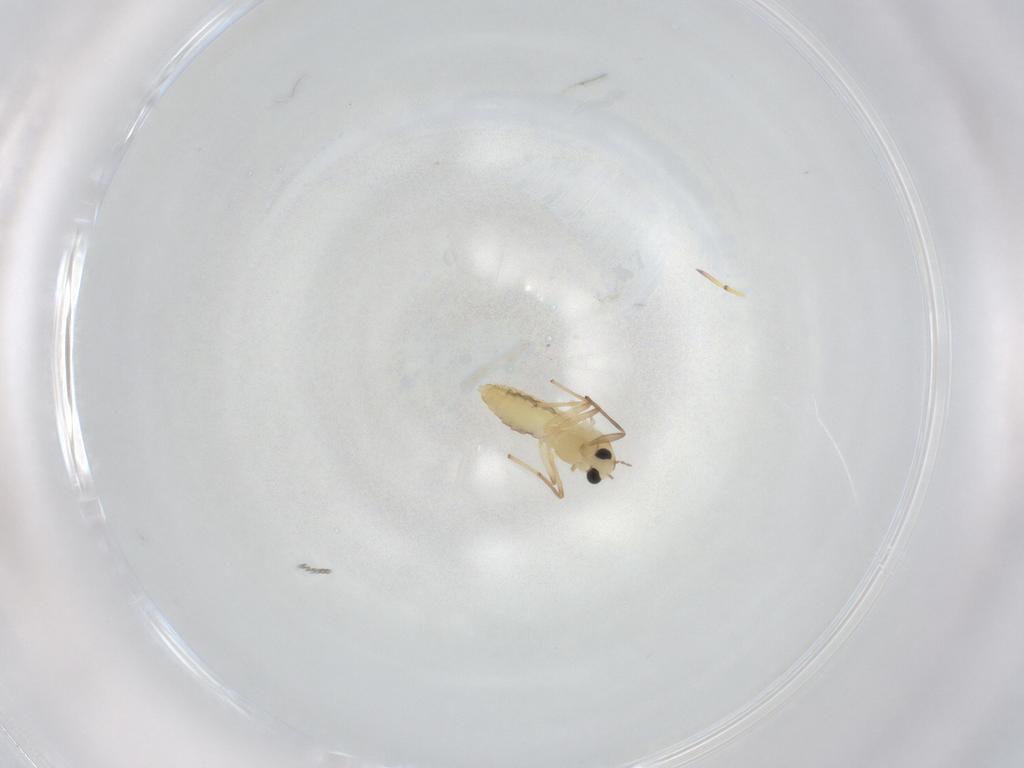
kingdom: Animalia
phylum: Arthropoda
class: Insecta
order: Diptera
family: Chironomidae
